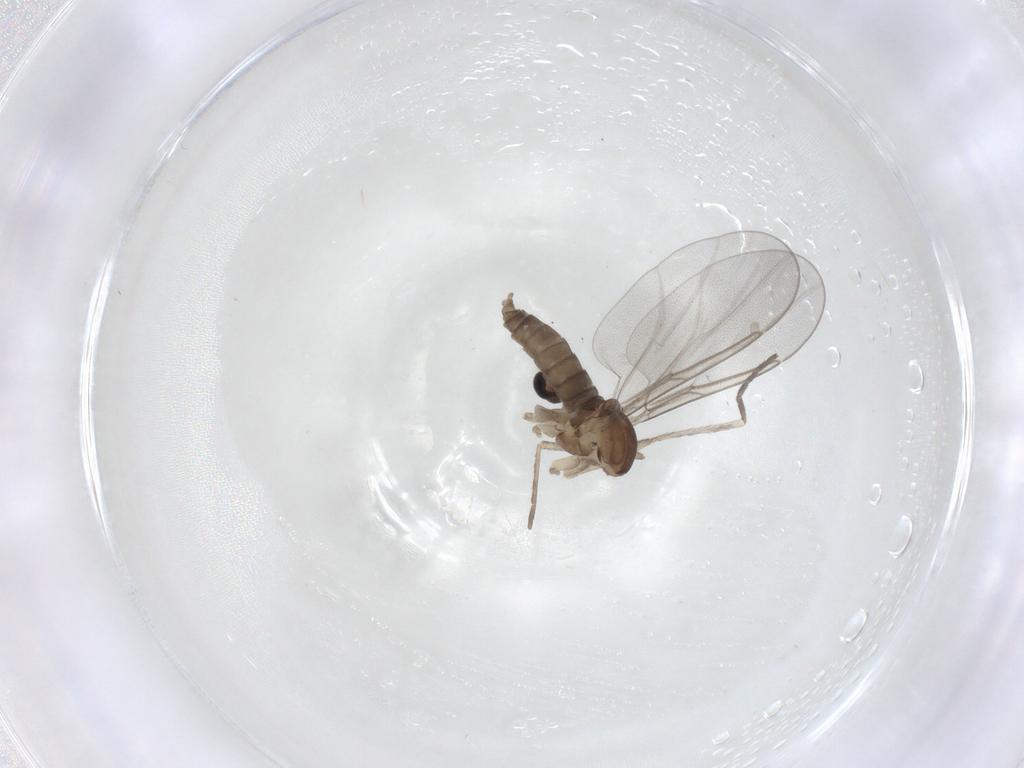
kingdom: Animalia
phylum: Arthropoda
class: Insecta
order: Diptera
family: Cecidomyiidae
